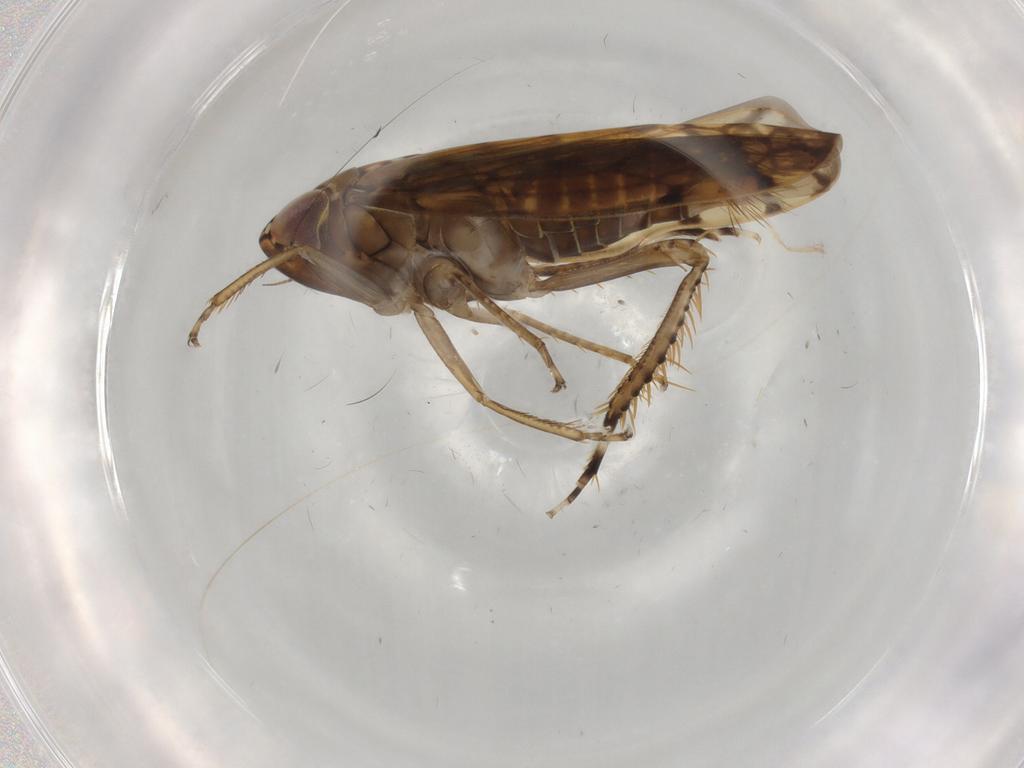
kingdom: Animalia
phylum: Arthropoda
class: Insecta
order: Hemiptera
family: Cicadellidae
